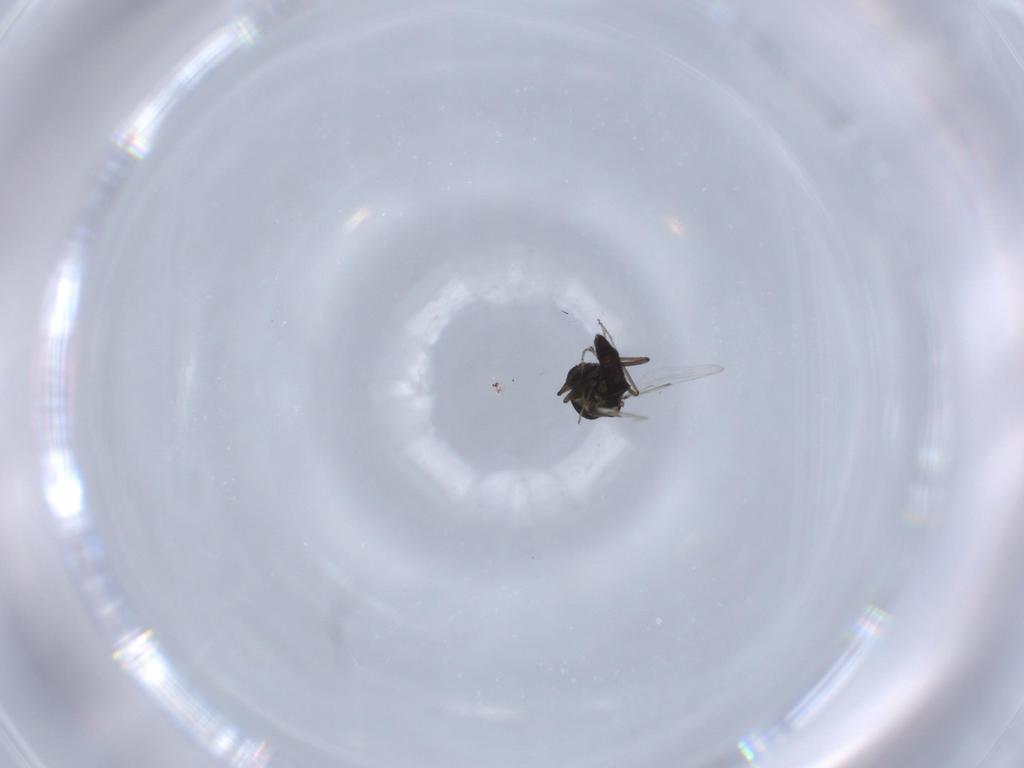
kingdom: Animalia
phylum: Arthropoda
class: Insecta
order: Diptera
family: Ceratopogonidae
